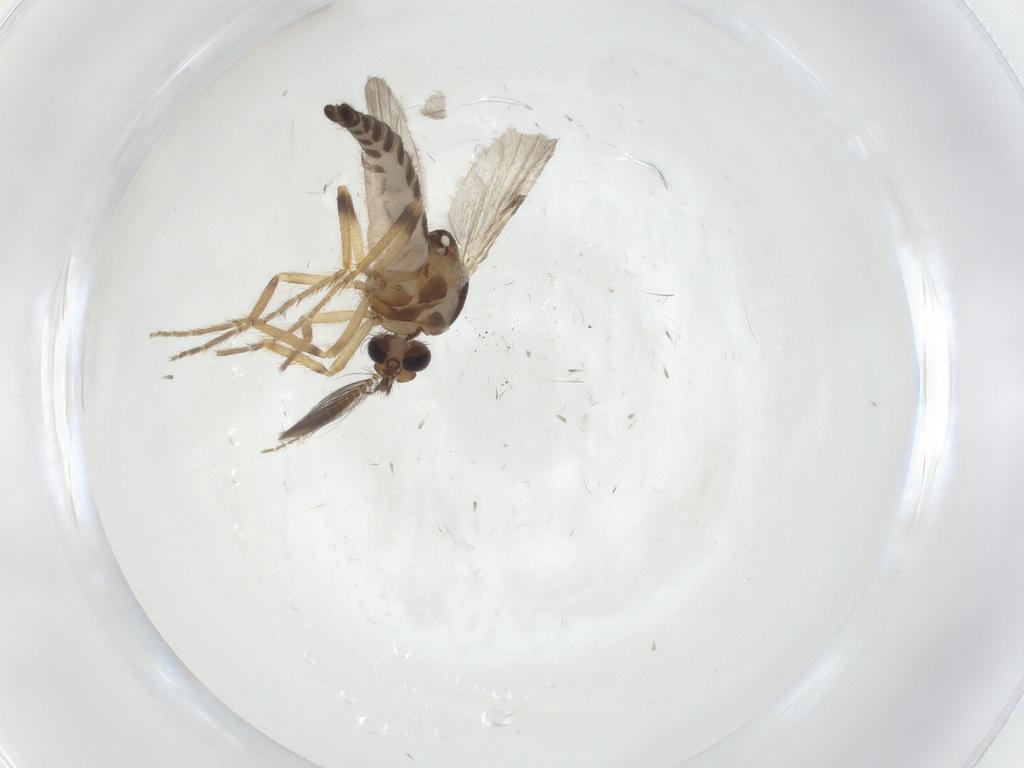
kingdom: Animalia
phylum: Arthropoda
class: Insecta
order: Diptera
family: Ceratopogonidae
